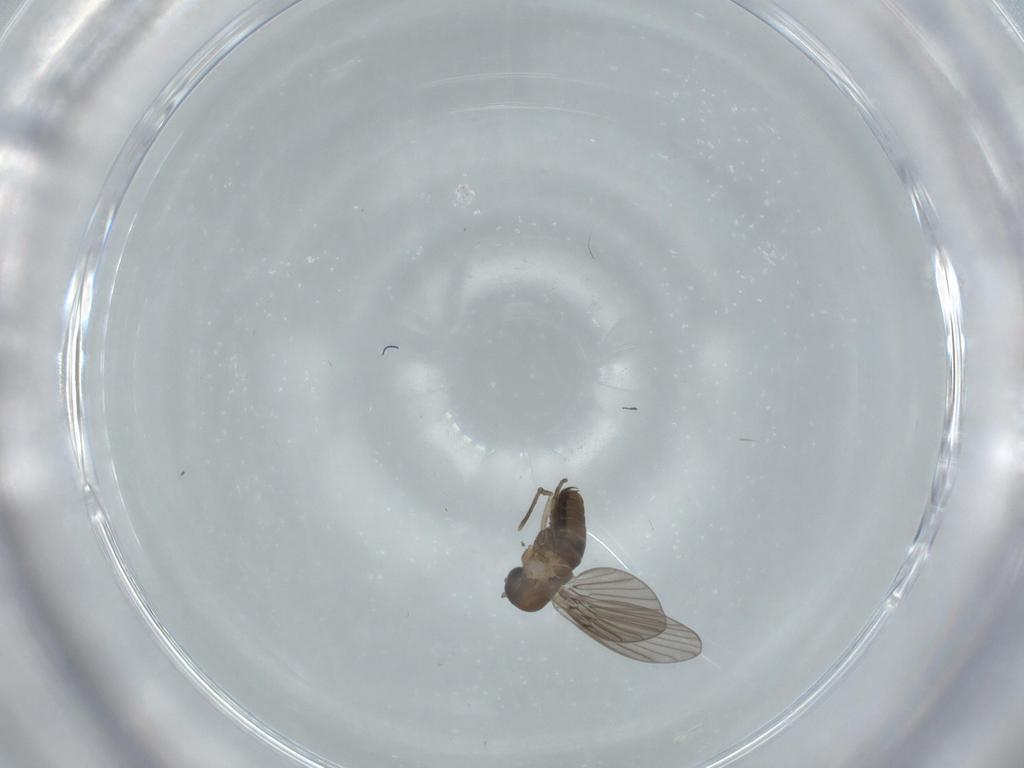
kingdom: Animalia
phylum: Arthropoda
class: Insecta
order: Diptera
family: Psychodidae
